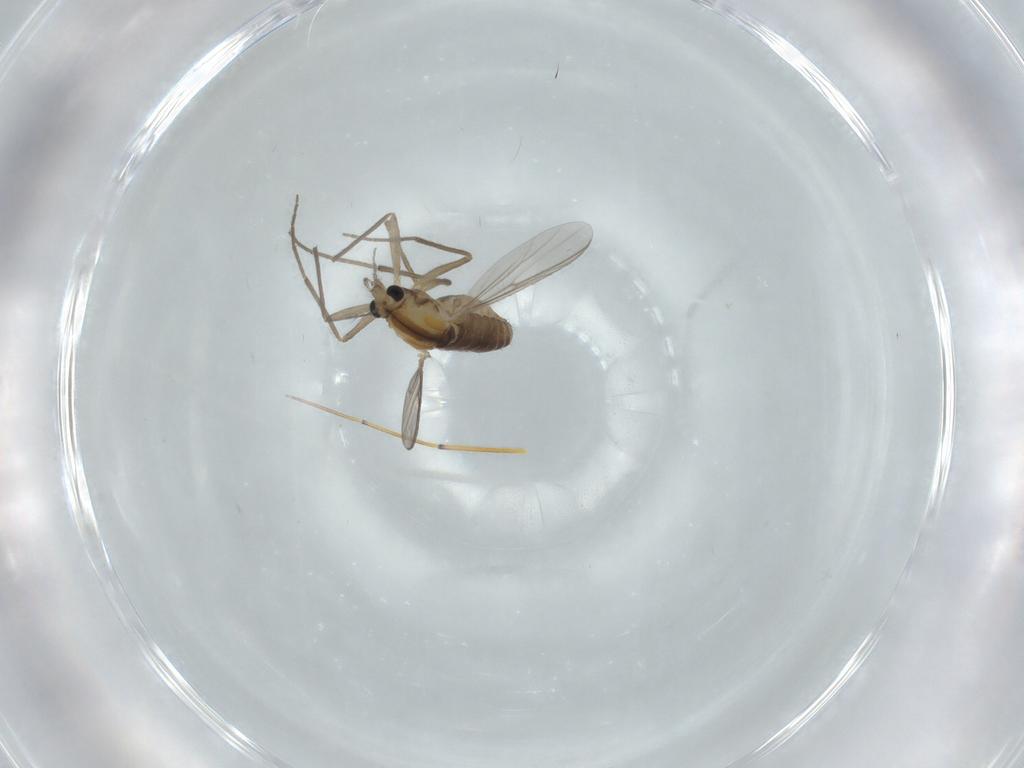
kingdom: Animalia
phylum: Arthropoda
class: Insecta
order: Diptera
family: Chironomidae
